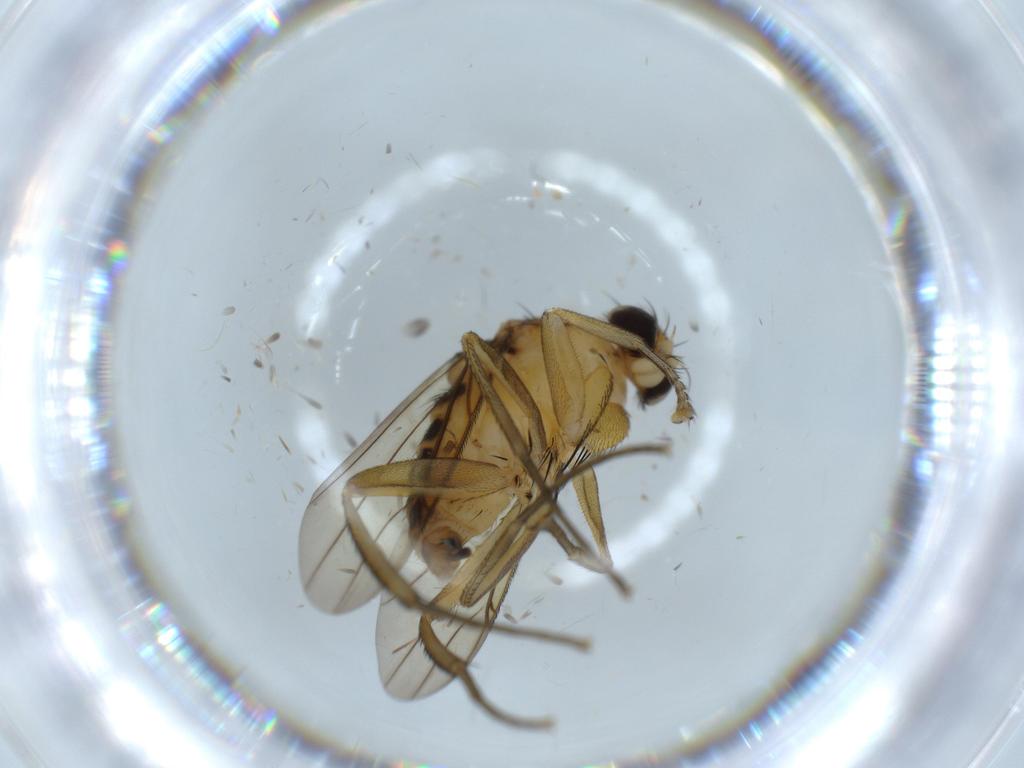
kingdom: Animalia
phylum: Arthropoda
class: Insecta
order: Diptera
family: Phoridae
